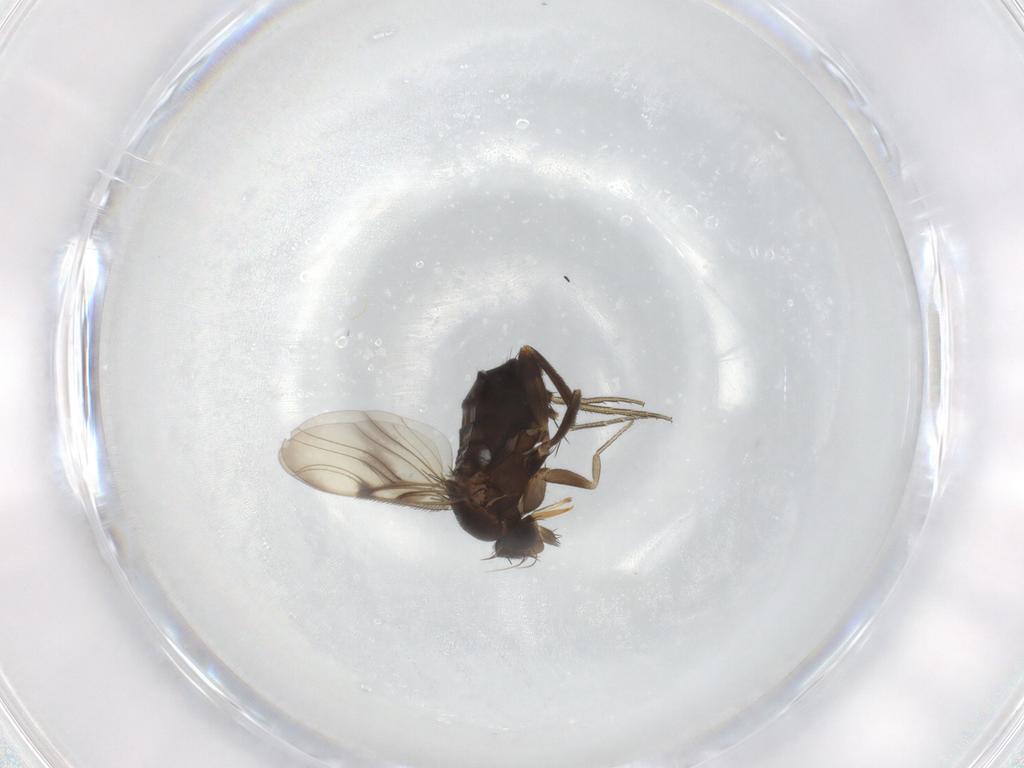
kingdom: Animalia
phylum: Arthropoda
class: Insecta
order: Diptera
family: Phoridae
